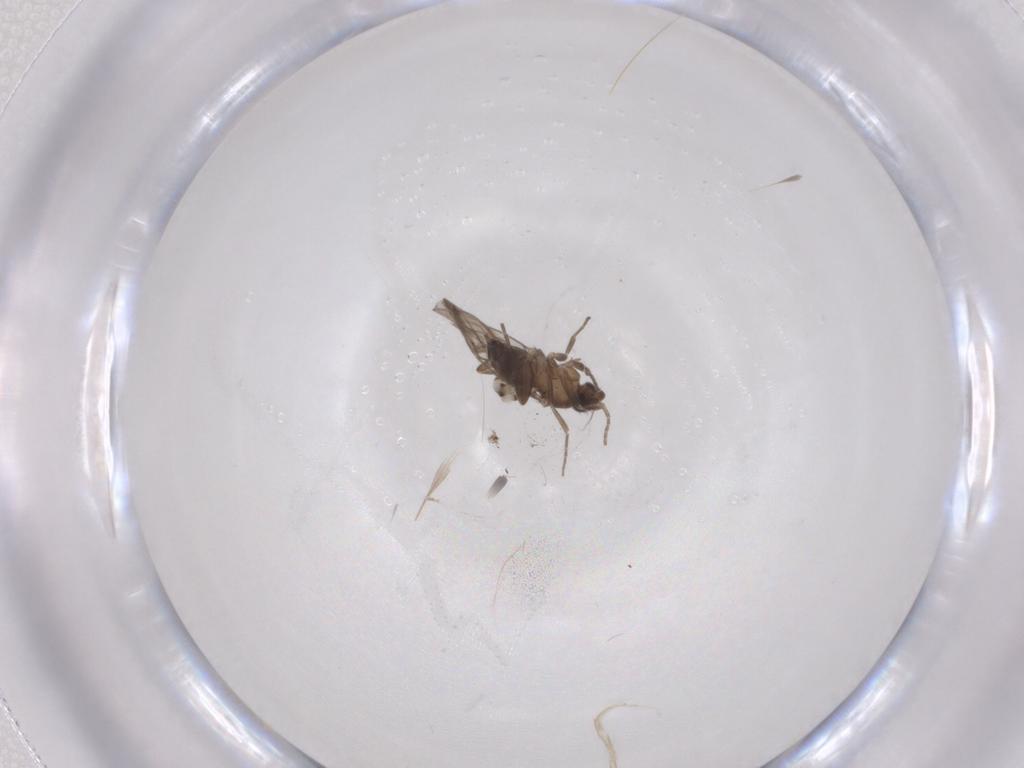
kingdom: Animalia
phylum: Arthropoda
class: Insecta
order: Diptera
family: Phoridae
